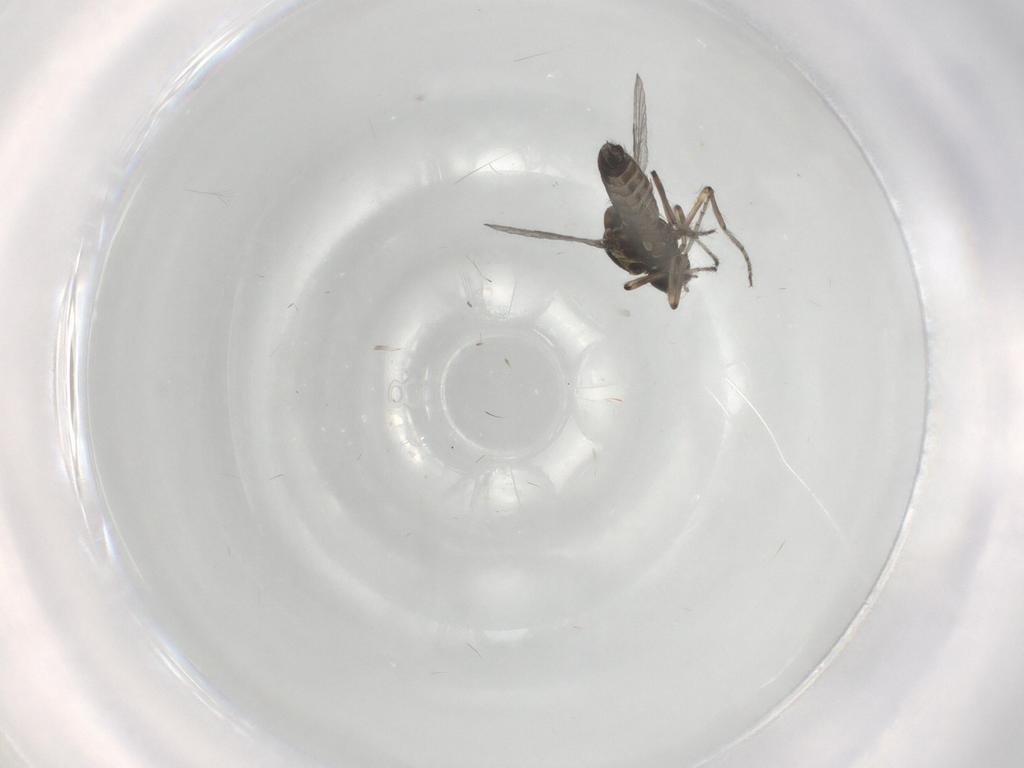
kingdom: Animalia
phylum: Arthropoda
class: Insecta
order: Diptera
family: Ceratopogonidae
